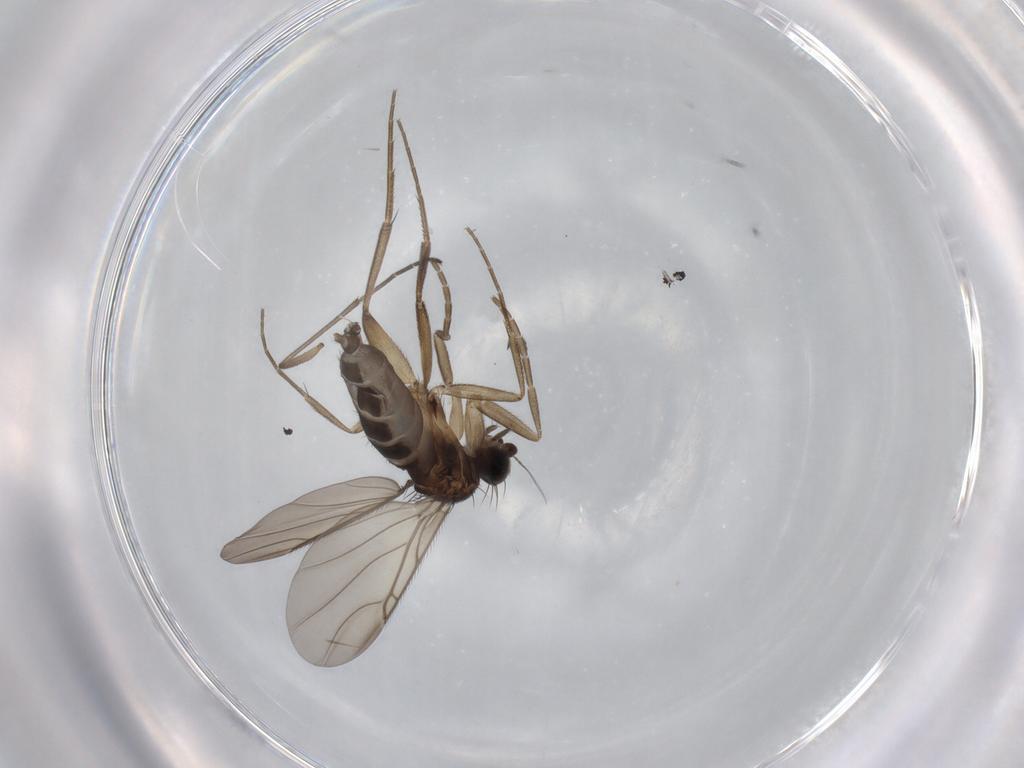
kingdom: Animalia
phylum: Arthropoda
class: Insecta
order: Diptera
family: Phoridae
